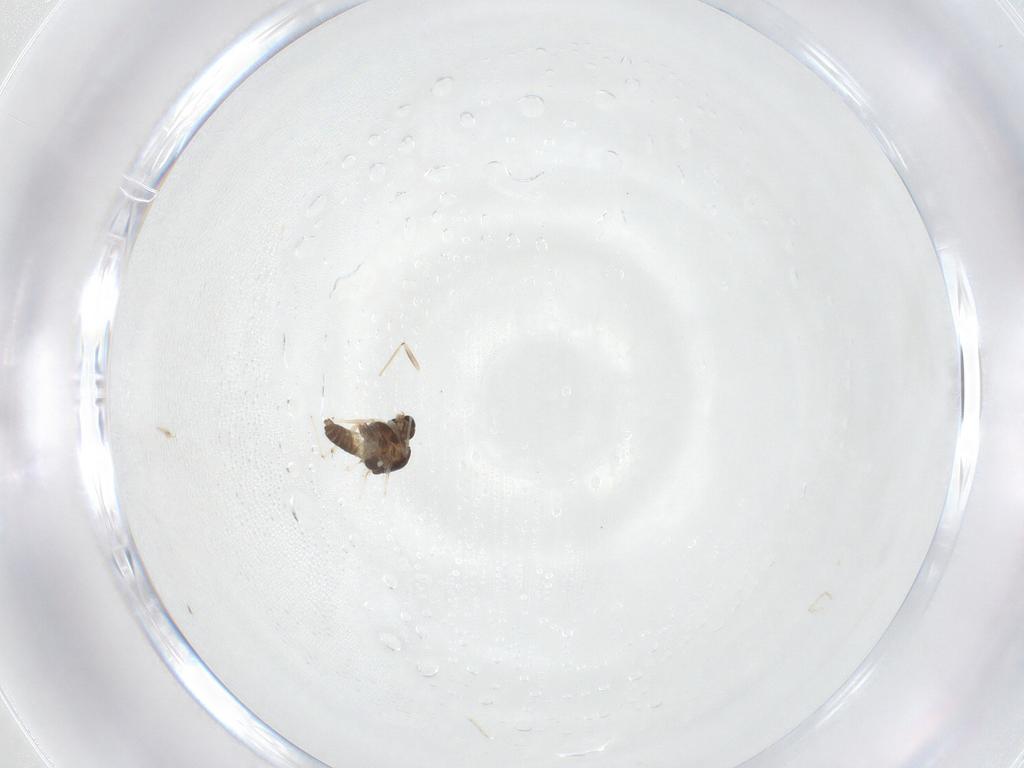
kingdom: Animalia
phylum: Arthropoda
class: Insecta
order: Diptera
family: Chironomidae
